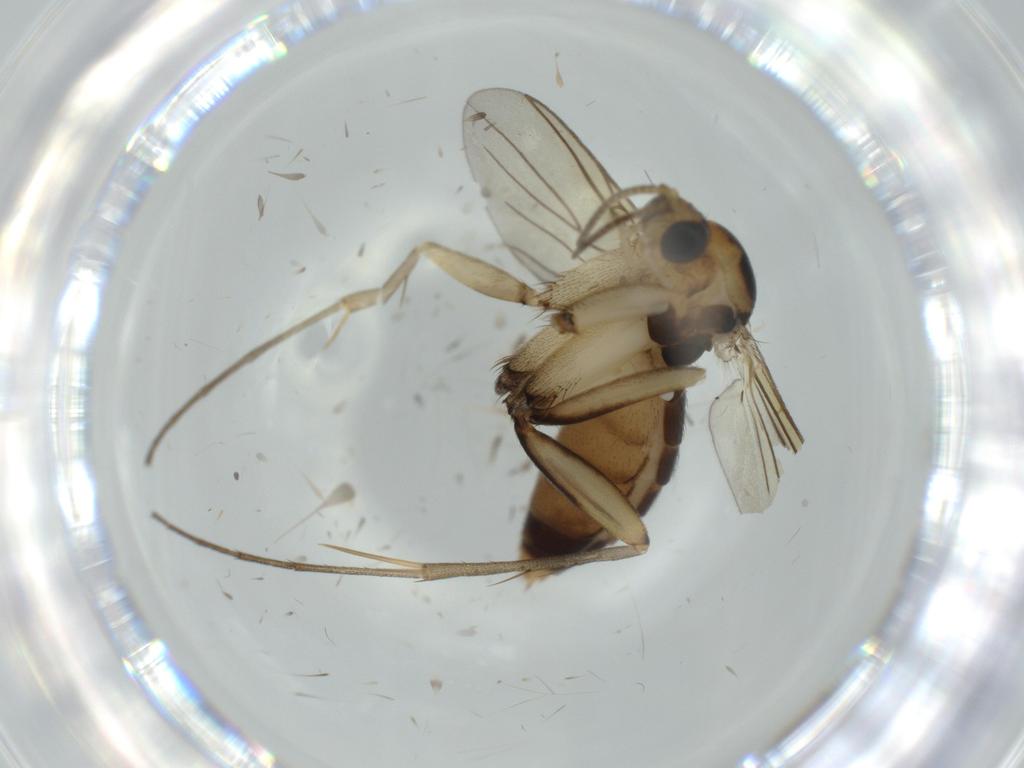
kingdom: Animalia
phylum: Arthropoda
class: Insecta
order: Diptera
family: Mycetophilidae
